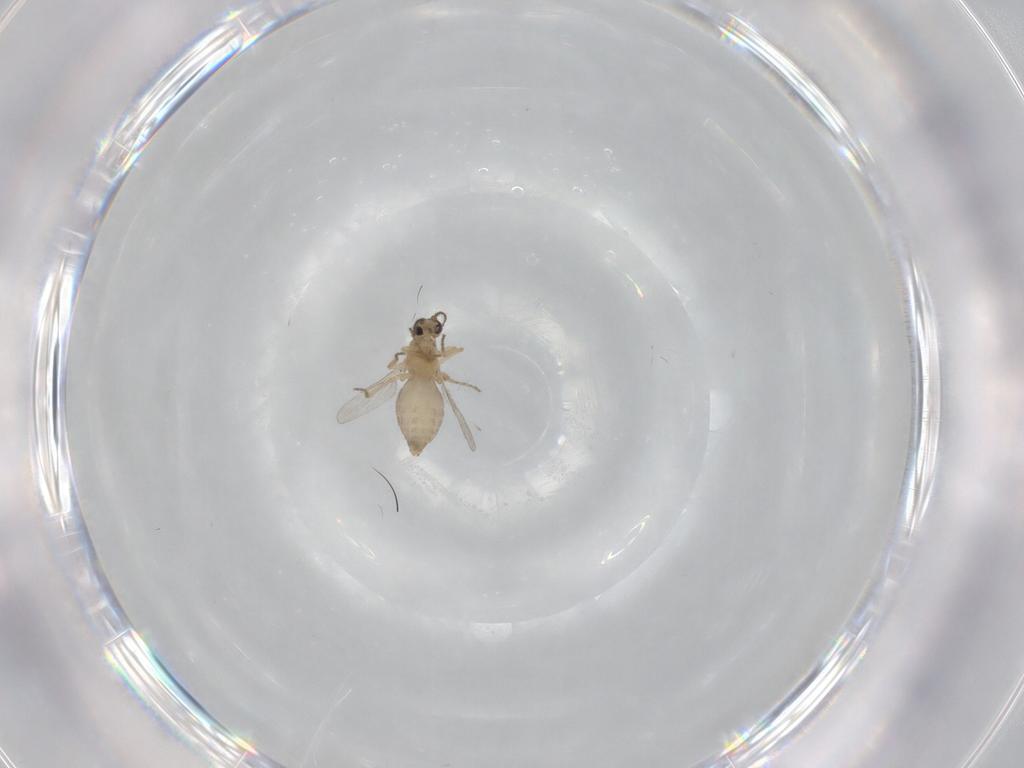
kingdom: Animalia
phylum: Arthropoda
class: Insecta
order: Diptera
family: Ceratopogonidae
